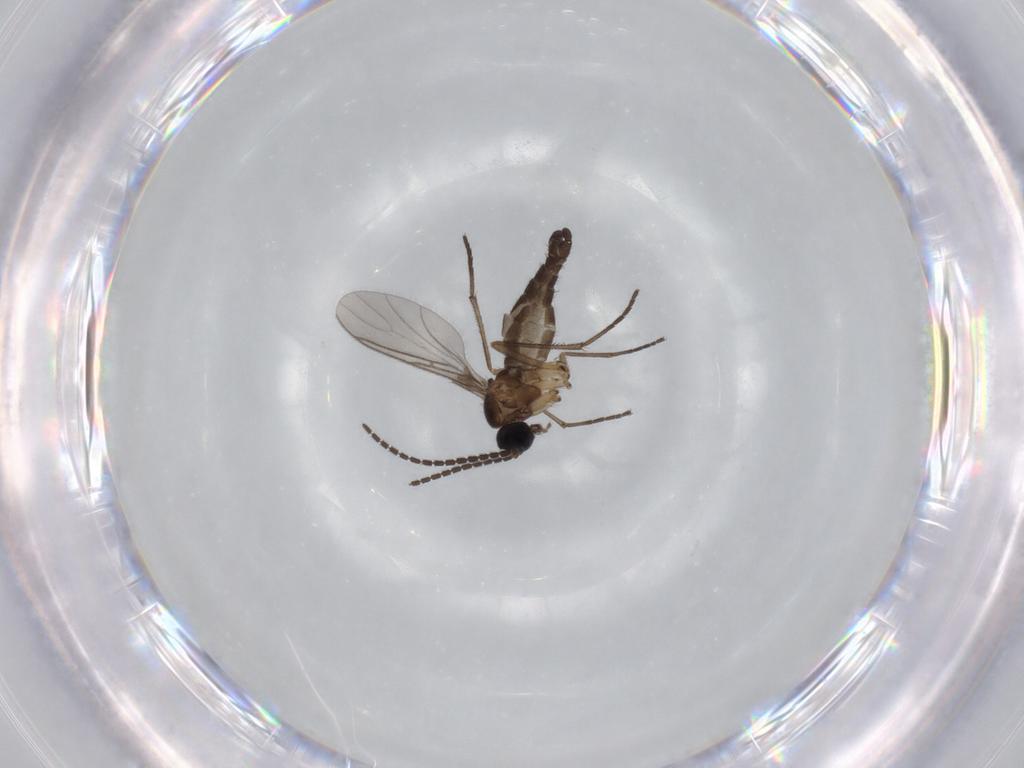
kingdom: Animalia
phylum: Arthropoda
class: Insecta
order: Diptera
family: Sciaridae
